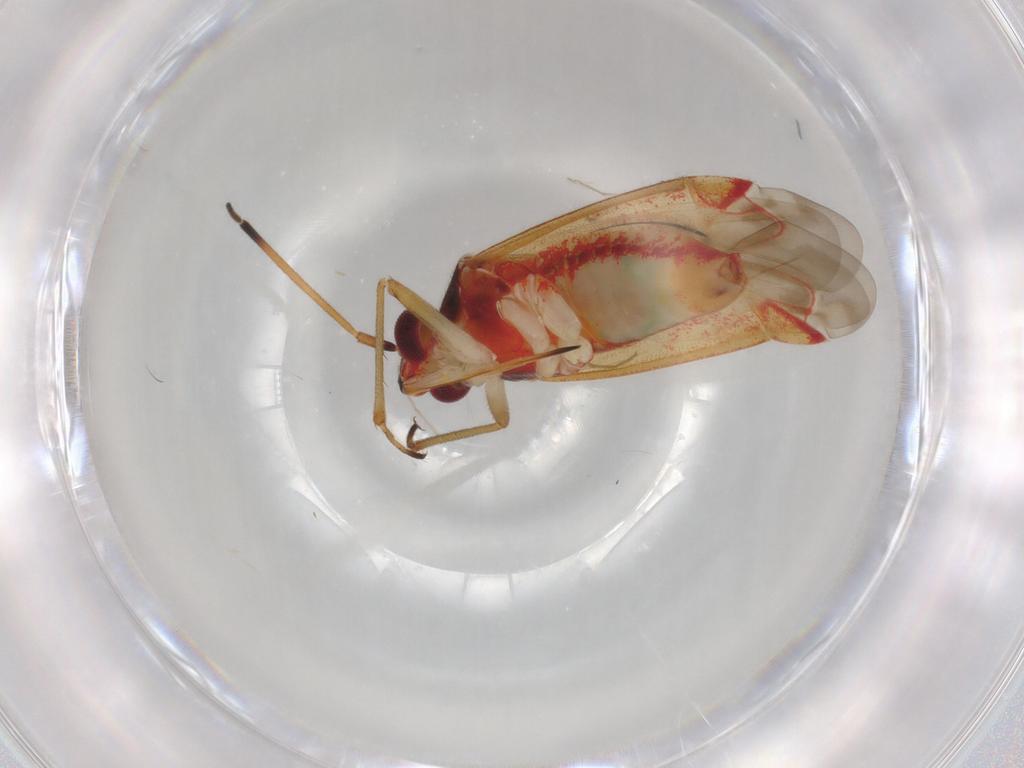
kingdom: Animalia
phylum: Arthropoda
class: Insecta
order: Hemiptera
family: Miridae
